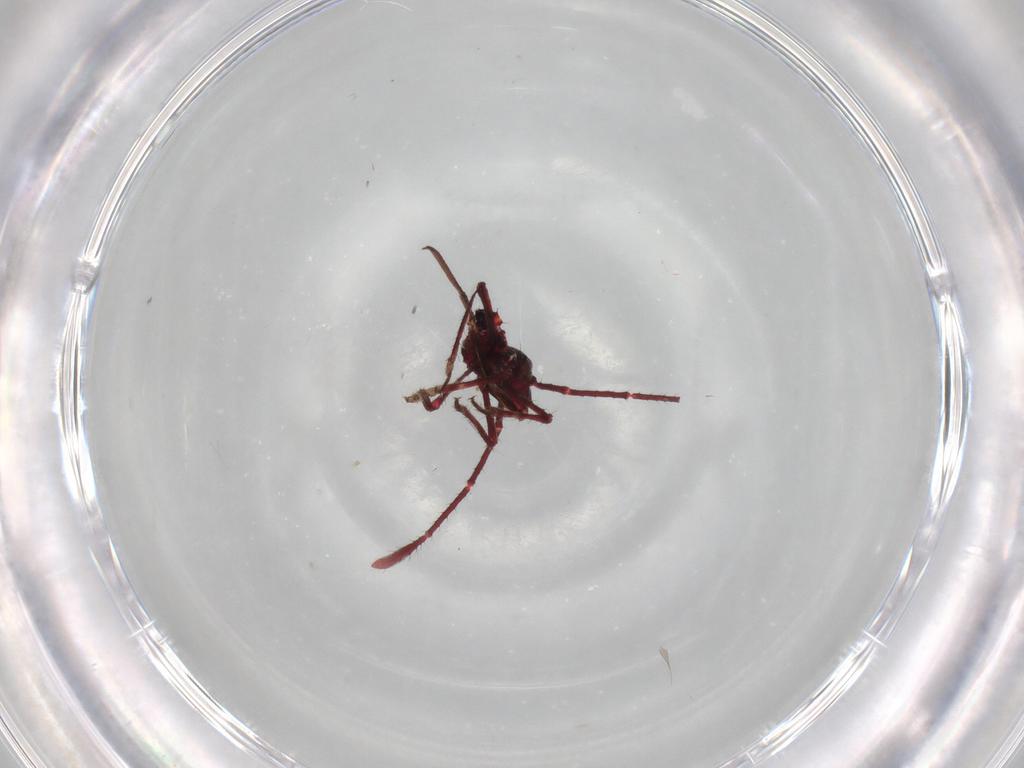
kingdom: Animalia
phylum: Arthropoda
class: Insecta
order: Hemiptera
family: Coreidae
